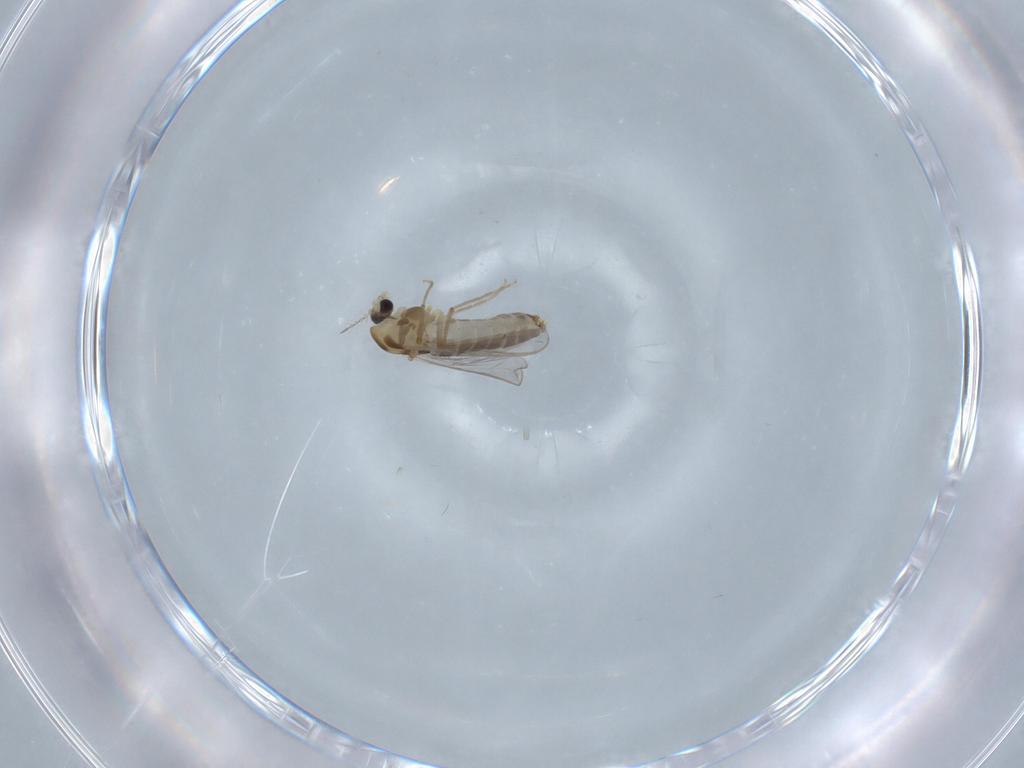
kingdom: Animalia
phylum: Arthropoda
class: Insecta
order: Diptera
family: Chironomidae
